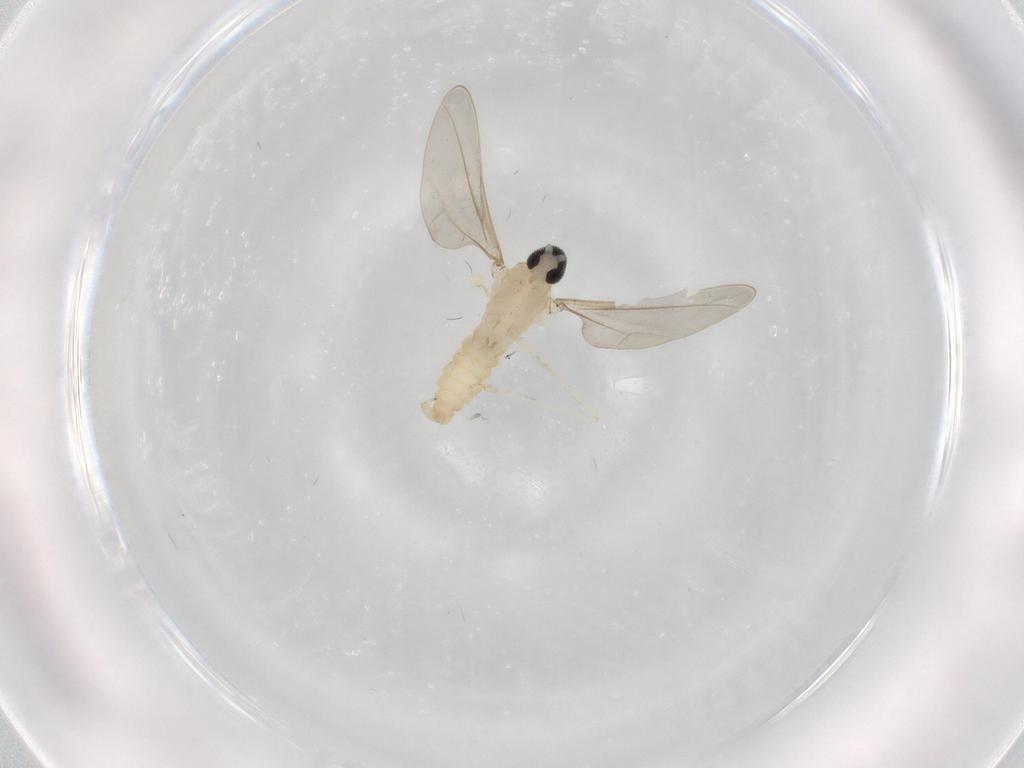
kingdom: Animalia
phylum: Arthropoda
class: Insecta
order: Diptera
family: Cecidomyiidae
